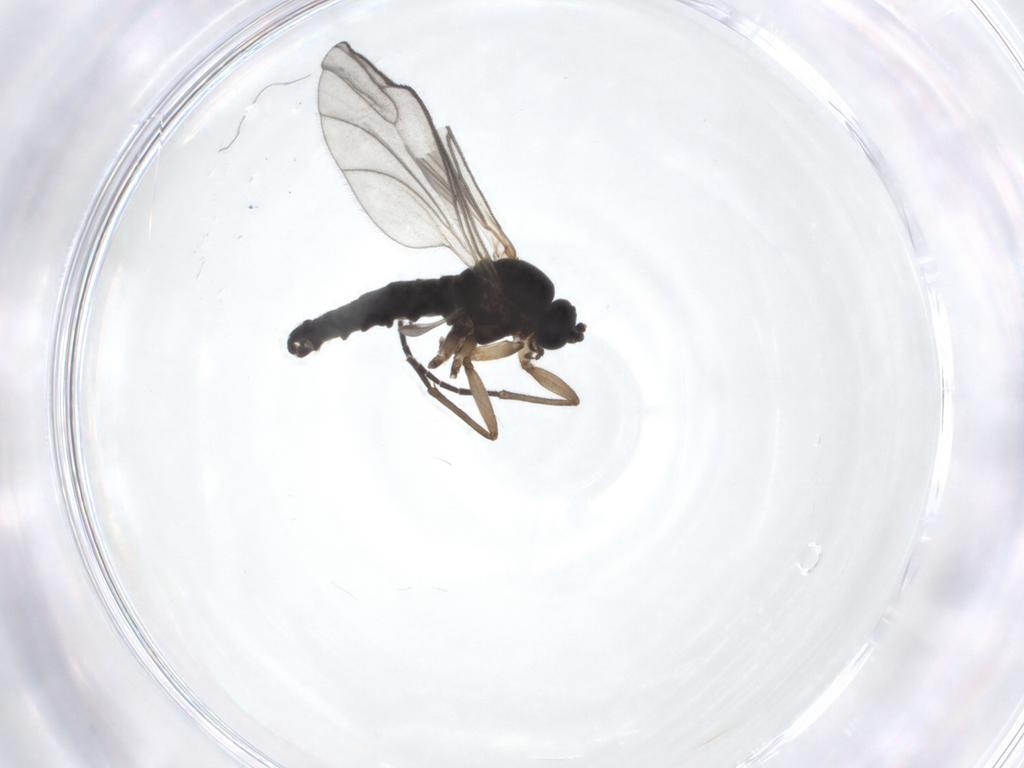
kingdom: Animalia
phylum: Arthropoda
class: Insecta
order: Diptera
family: Sciaridae
